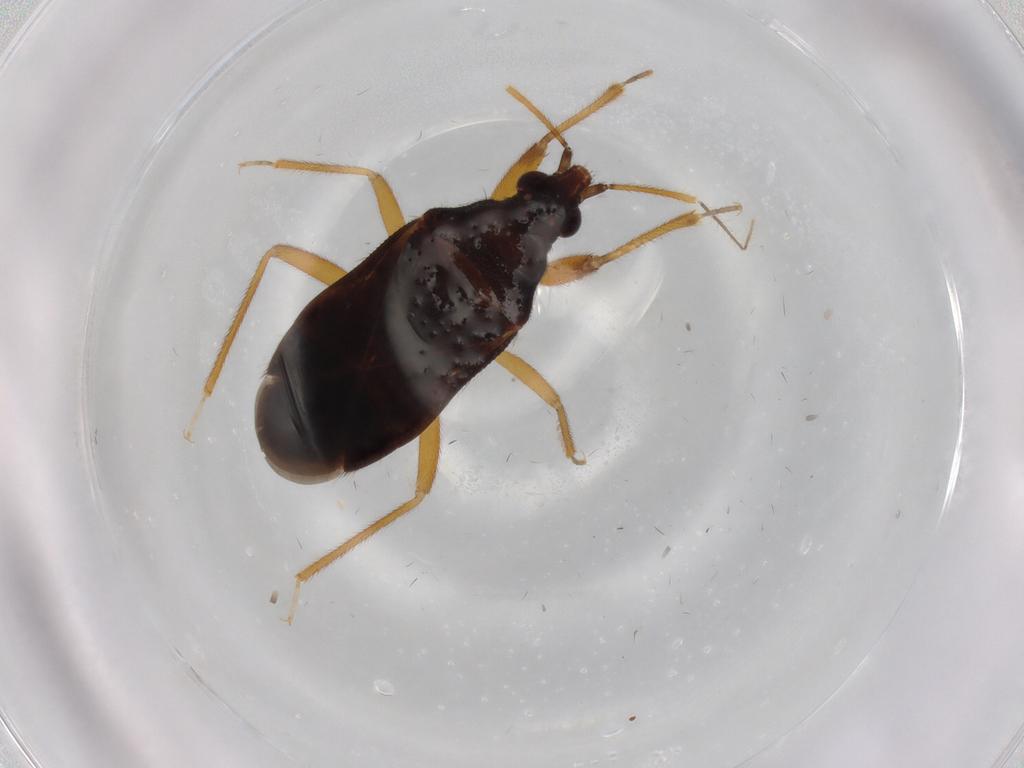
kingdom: Animalia
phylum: Arthropoda
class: Insecta
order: Hemiptera
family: Anthocoridae
